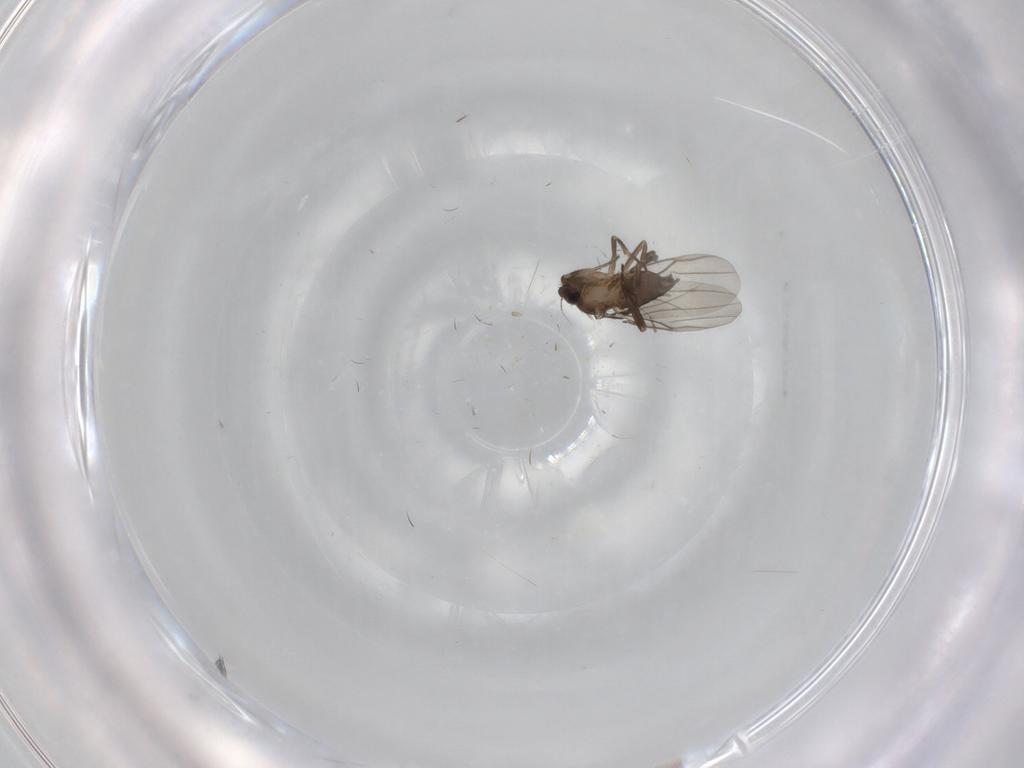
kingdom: Animalia
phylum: Arthropoda
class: Insecta
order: Diptera
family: Phoridae
